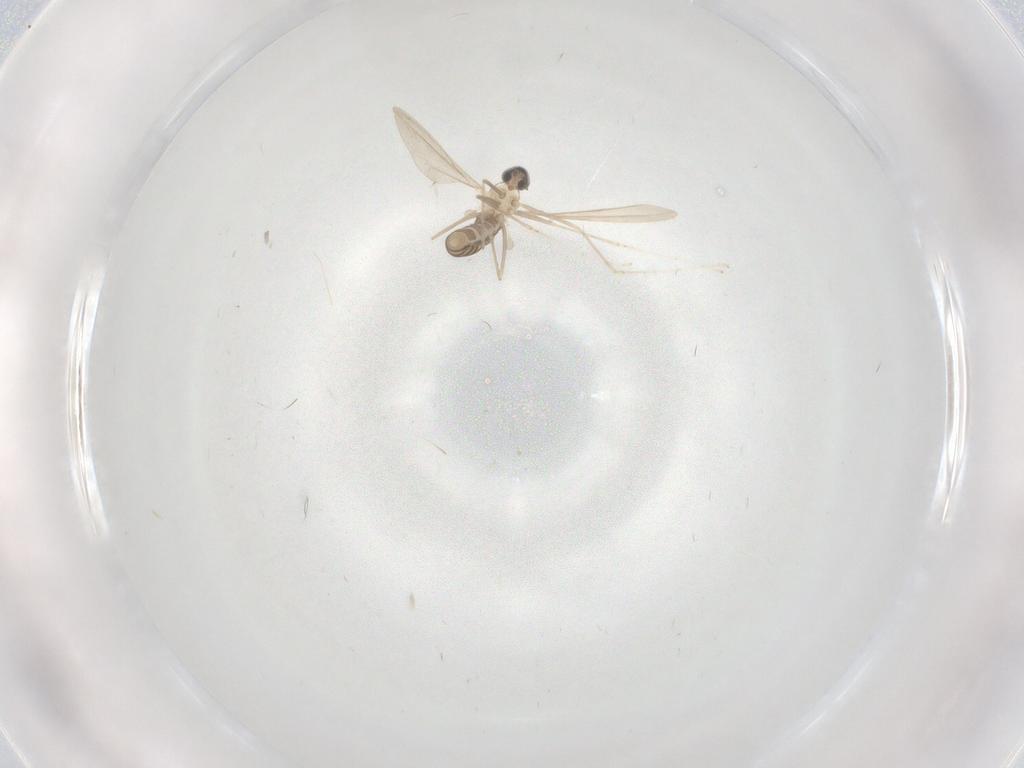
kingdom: Animalia
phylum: Arthropoda
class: Insecta
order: Diptera
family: Cecidomyiidae
